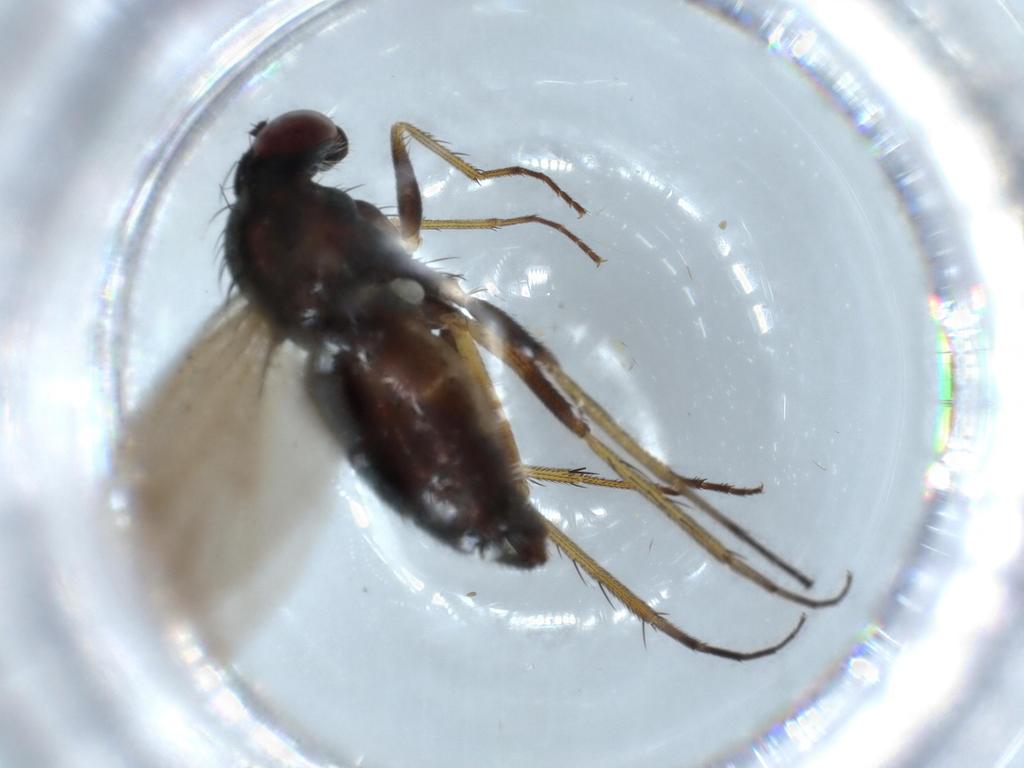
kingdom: Animalia
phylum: Arthropoda
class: Insecta
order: Diptera
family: Dolichopodidae
